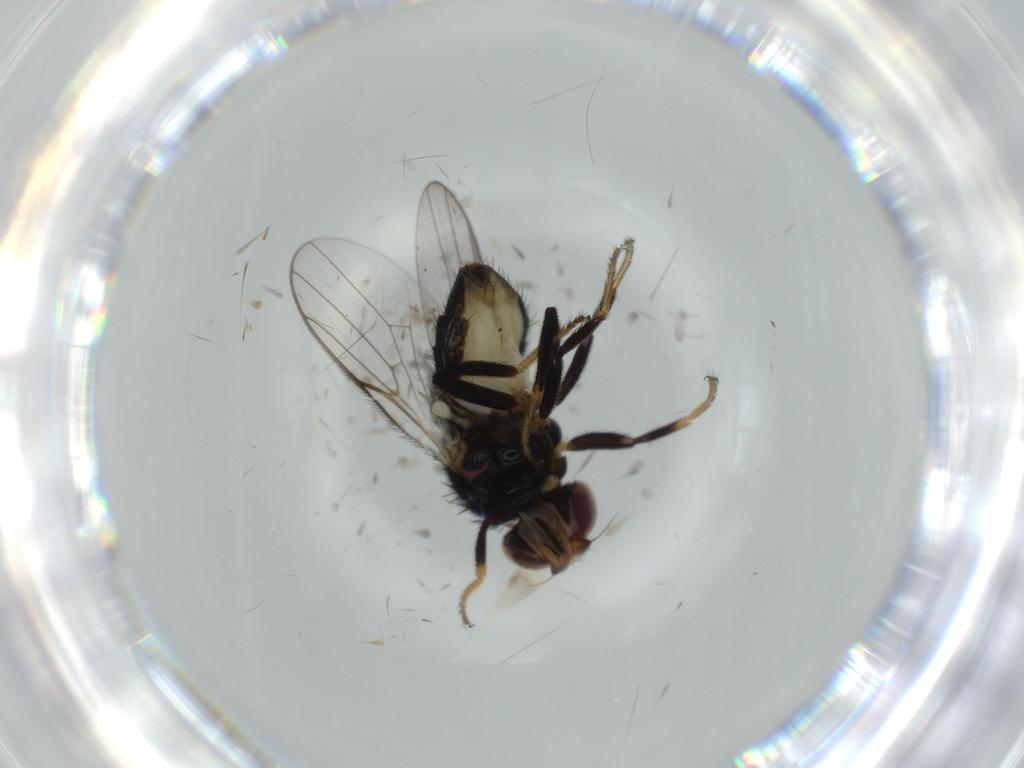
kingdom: Animalia
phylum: Arthropoda
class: Insecta
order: Diptera
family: Chloropidae
